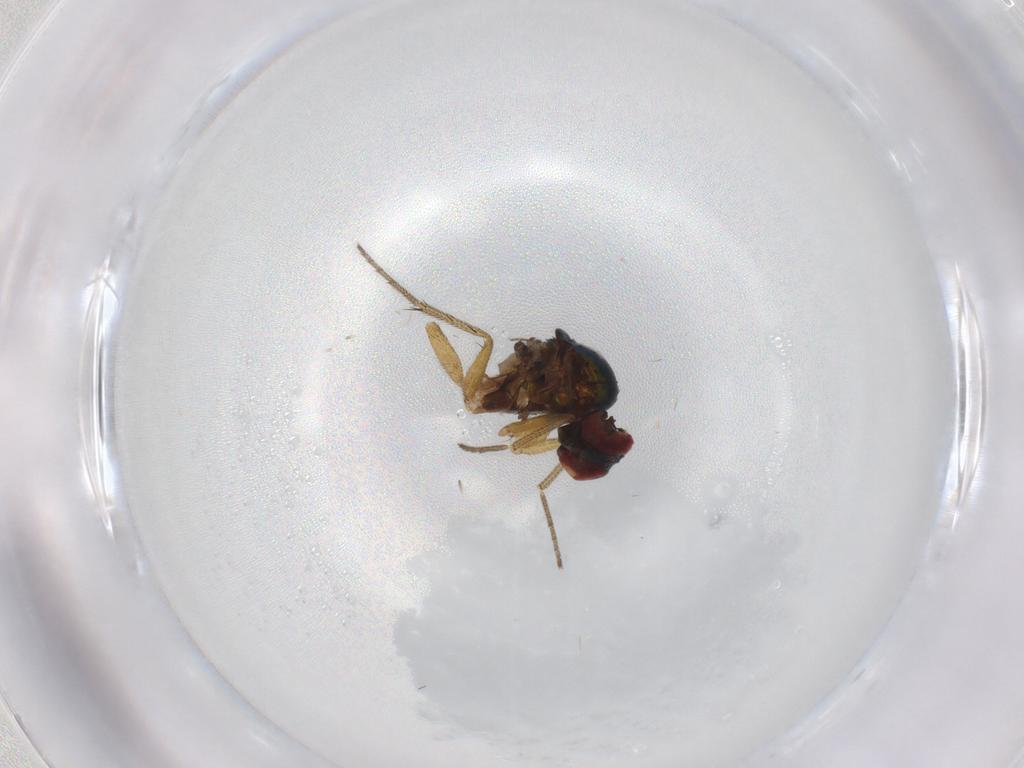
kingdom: Animalia
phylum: Arthropoda
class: Insecta
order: Diptera
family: Chironomidae
